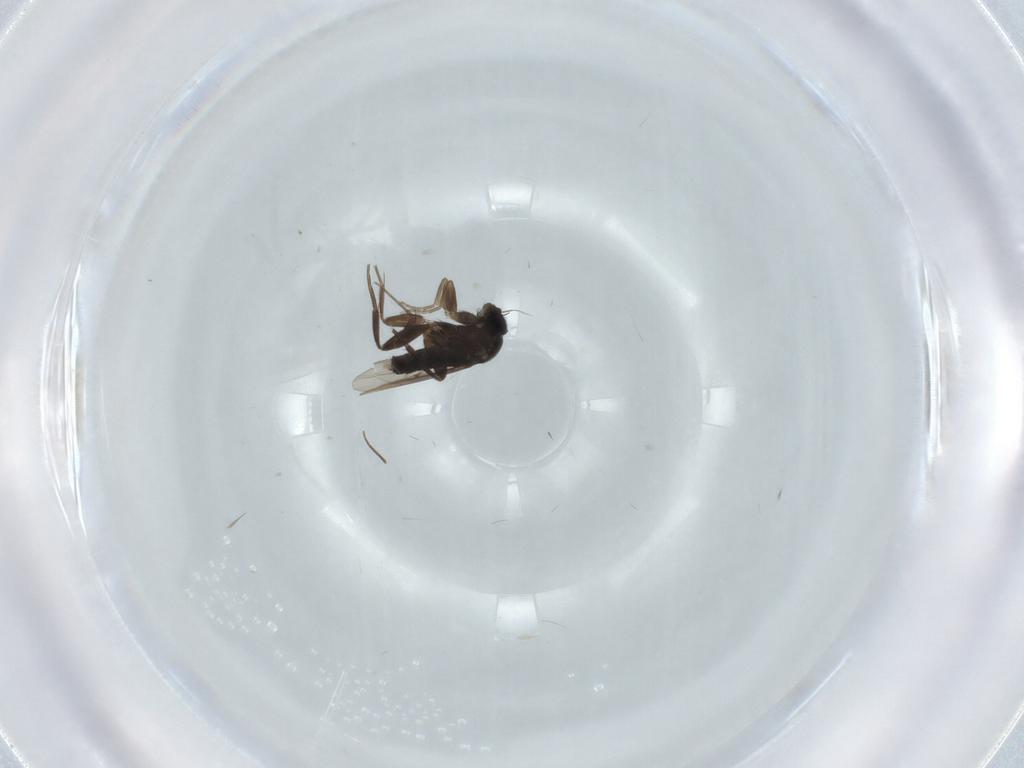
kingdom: Animalia
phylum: Arthropoda
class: Insecta
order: Diptera
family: Phoridae
